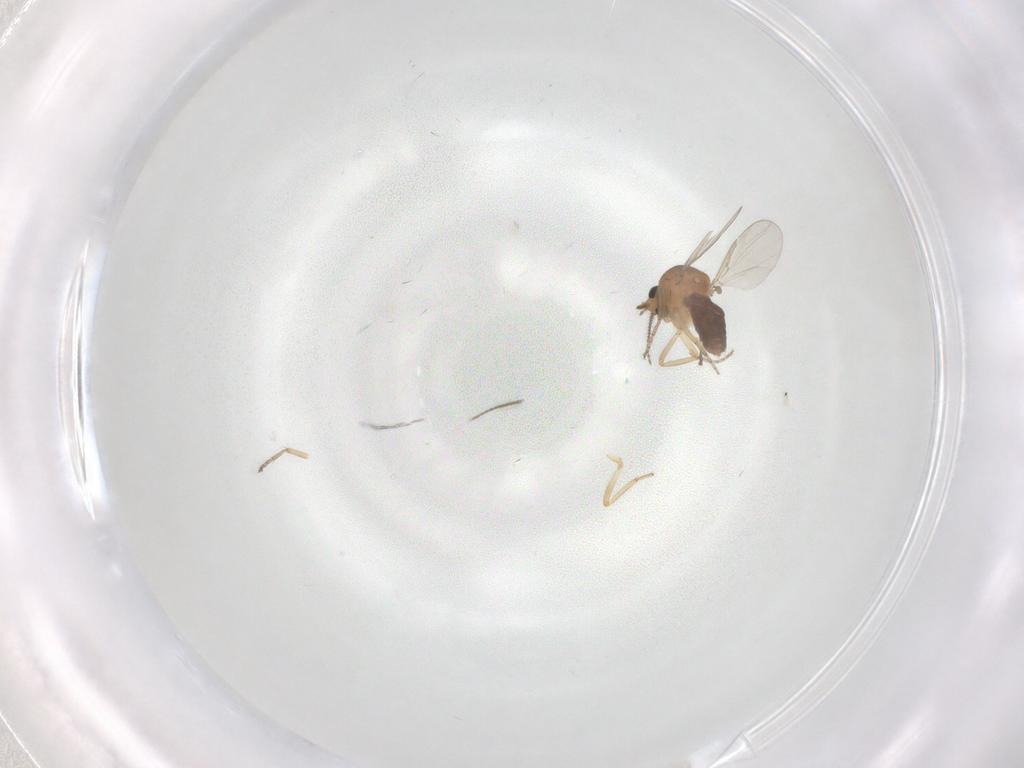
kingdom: Animalia
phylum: Arthropoda
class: Insecta
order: Diptera
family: Ceratopogonidae
